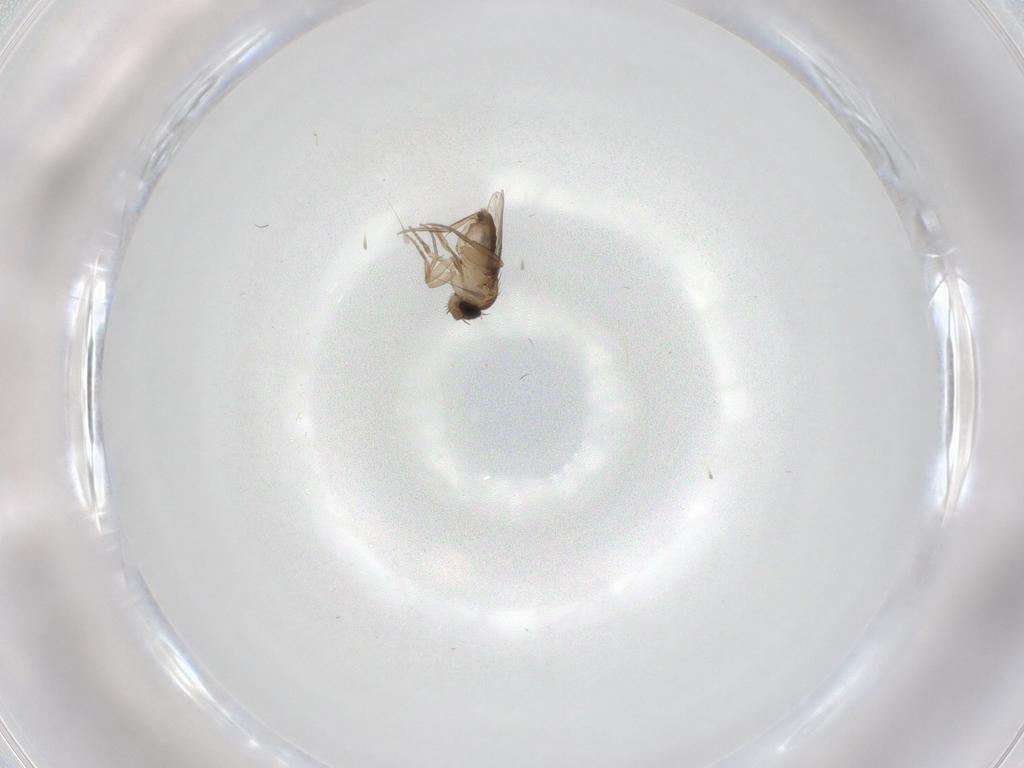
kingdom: Animalia
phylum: Arthropoda
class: Insecta
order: Diptera
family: Phoridae
